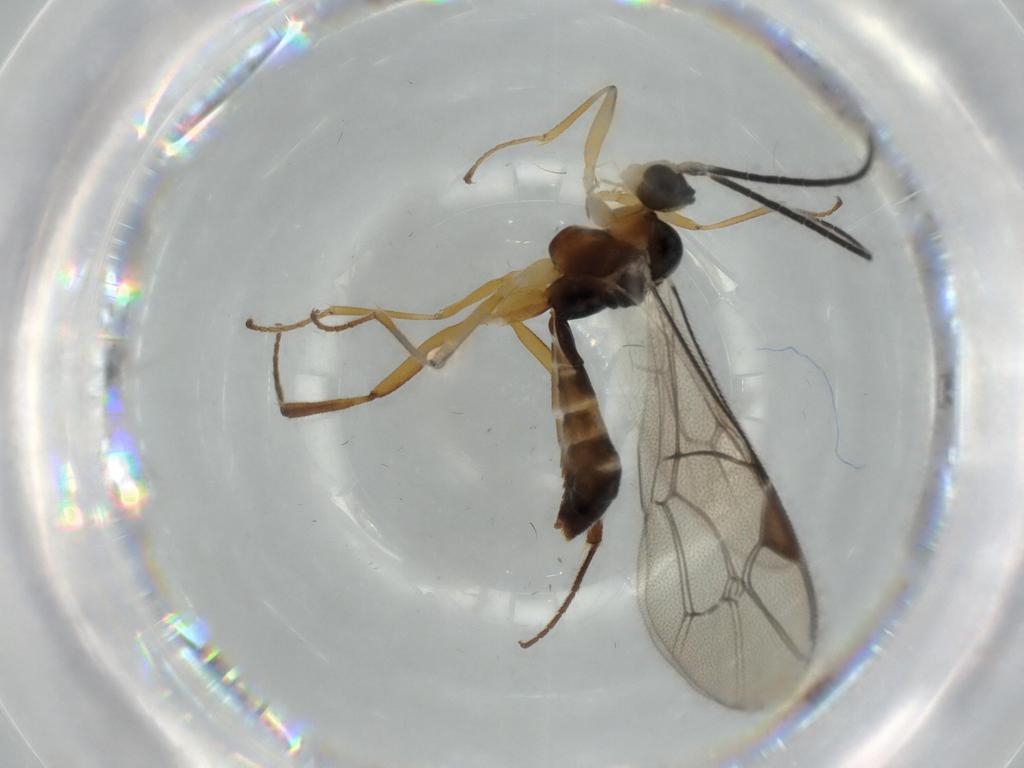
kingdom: Animalia
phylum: Arthropoda
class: Insecta
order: Hymenoptera
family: Ichneumonidae
